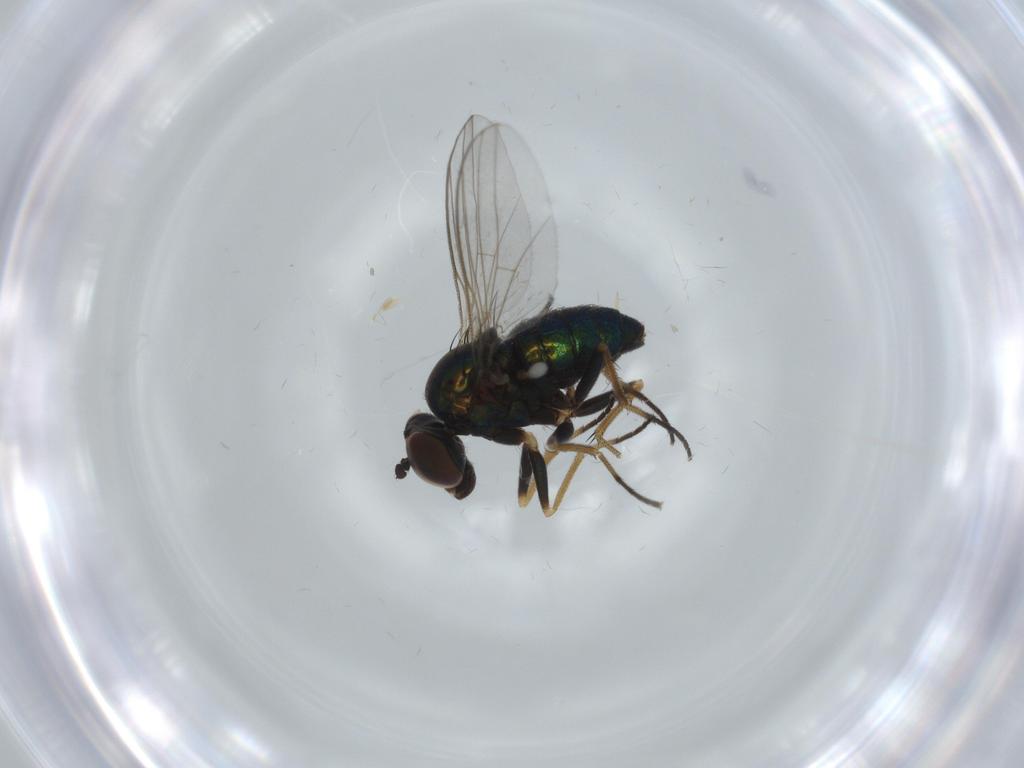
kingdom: Animalia
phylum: Arthropoda
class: Insecta
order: Diptera
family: Chironomidae
